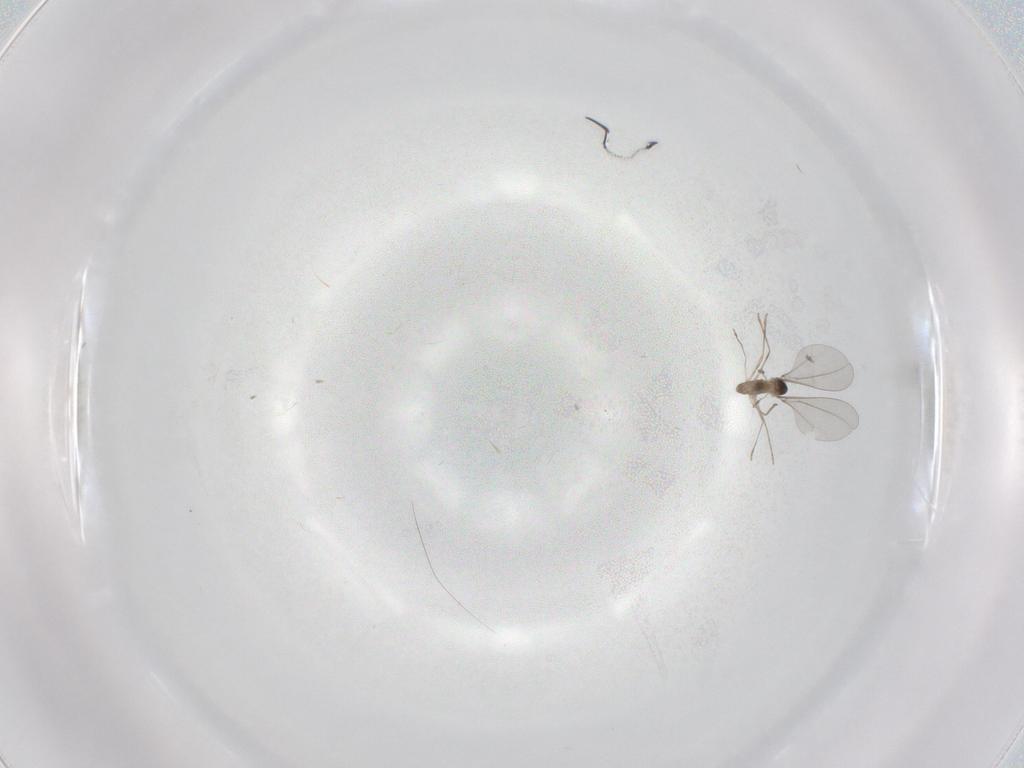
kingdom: Animalia
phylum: Arthropoda
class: Insecta
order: Diptera
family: Cecidomyiidae
